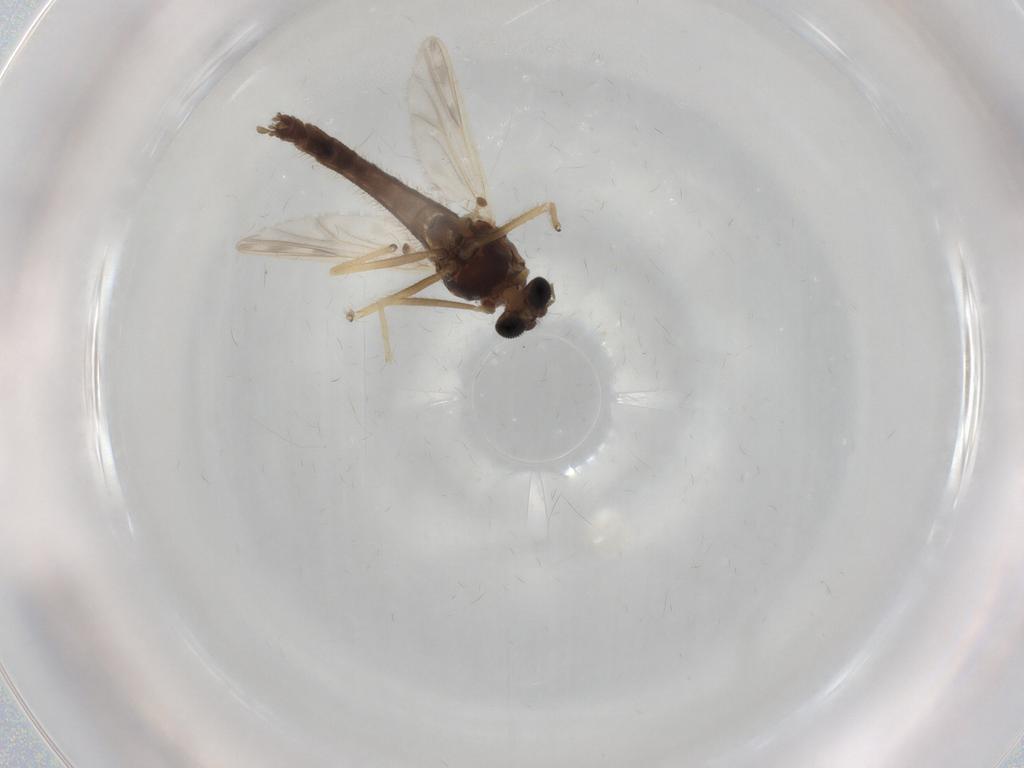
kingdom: Animalia
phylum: Arthropoda
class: Insecta
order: Diptera
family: Chironomidae
